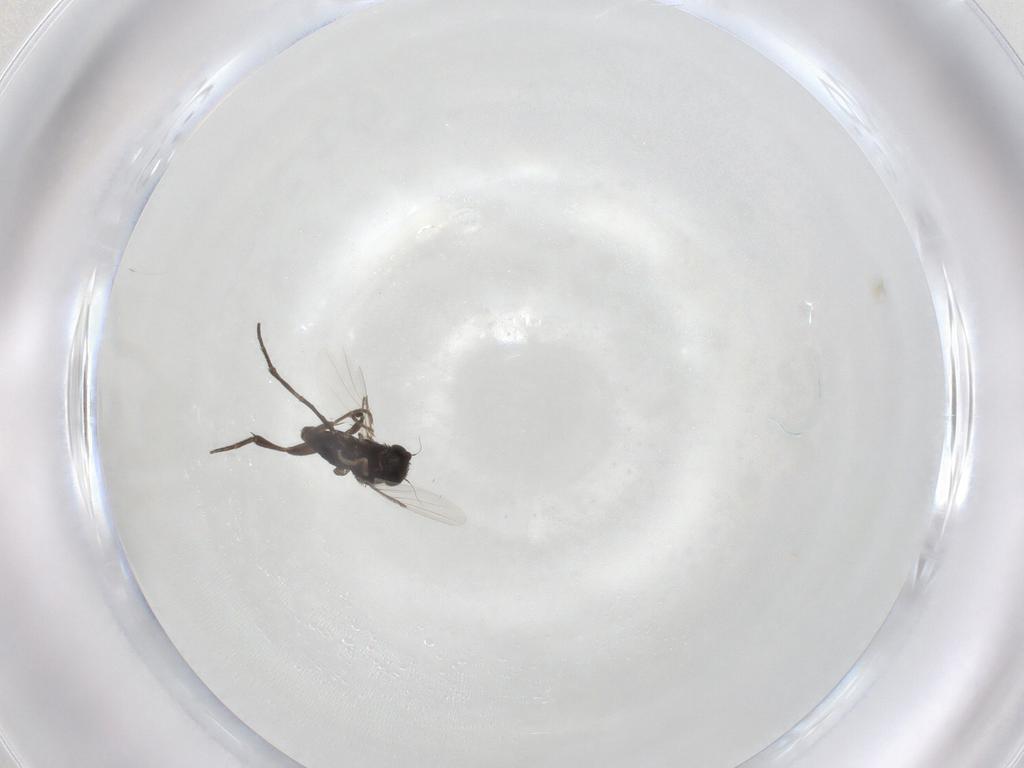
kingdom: Animalia
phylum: Arthropoda
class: Insecta
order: Diptera
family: Phoridae
